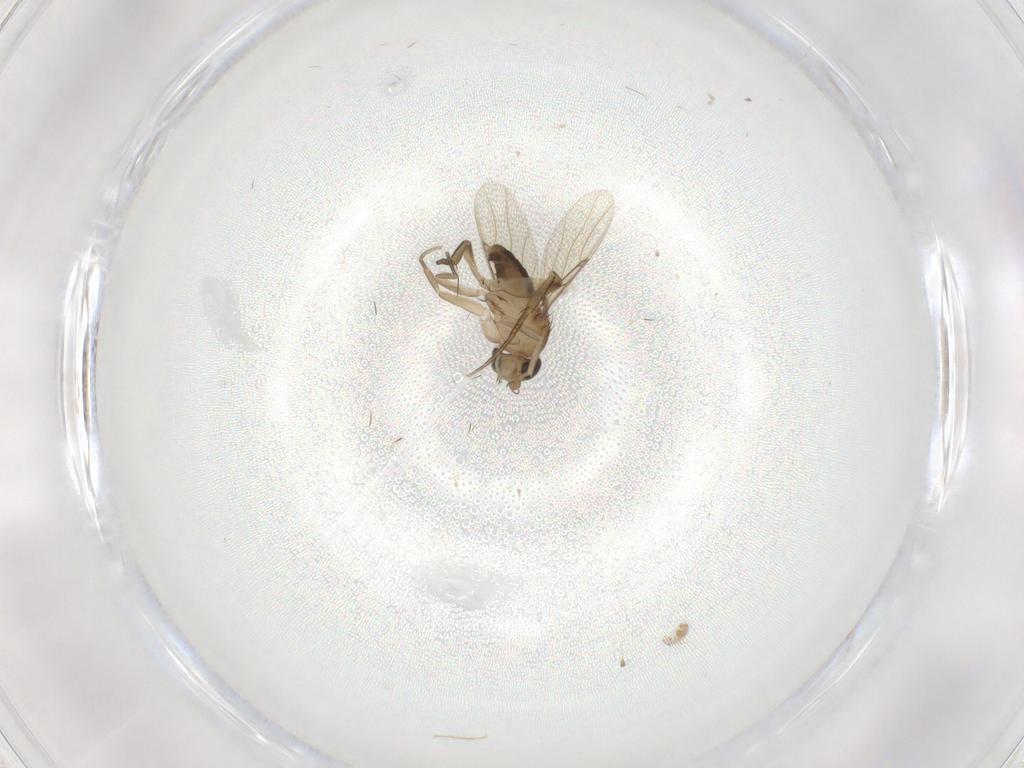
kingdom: Animalia
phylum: Arthropoda
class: Insecta
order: Diptera
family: Phoridae
